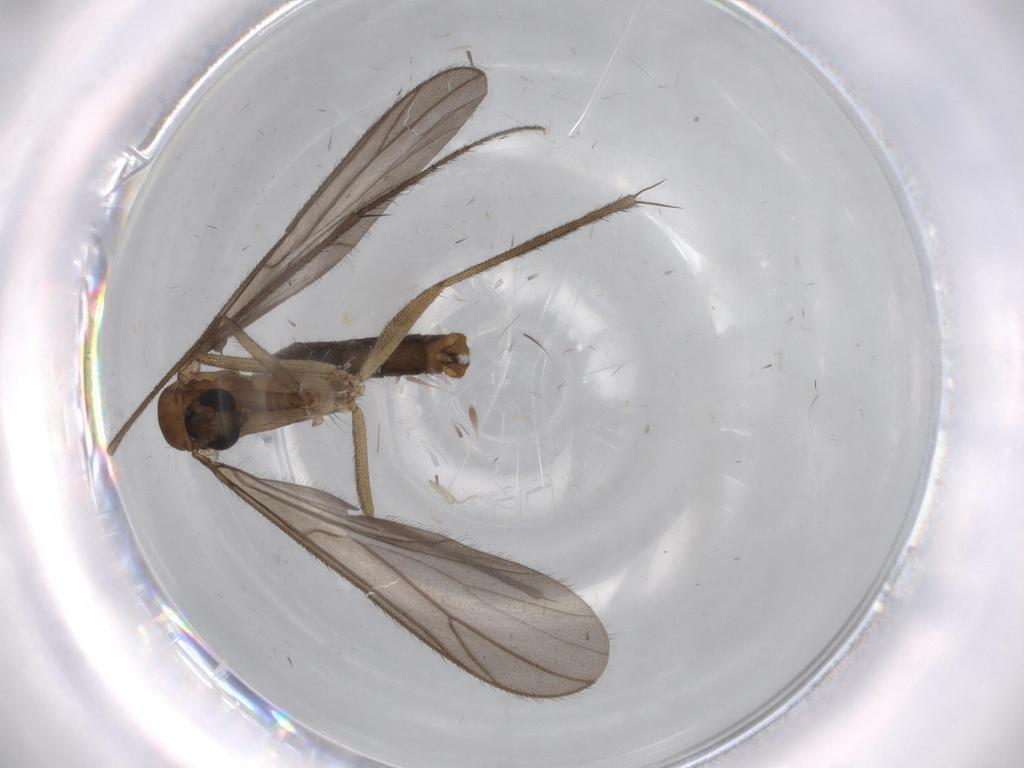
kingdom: Animalia
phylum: Arthropoda
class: Insecta
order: Diptera
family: Cecidomyiidae
